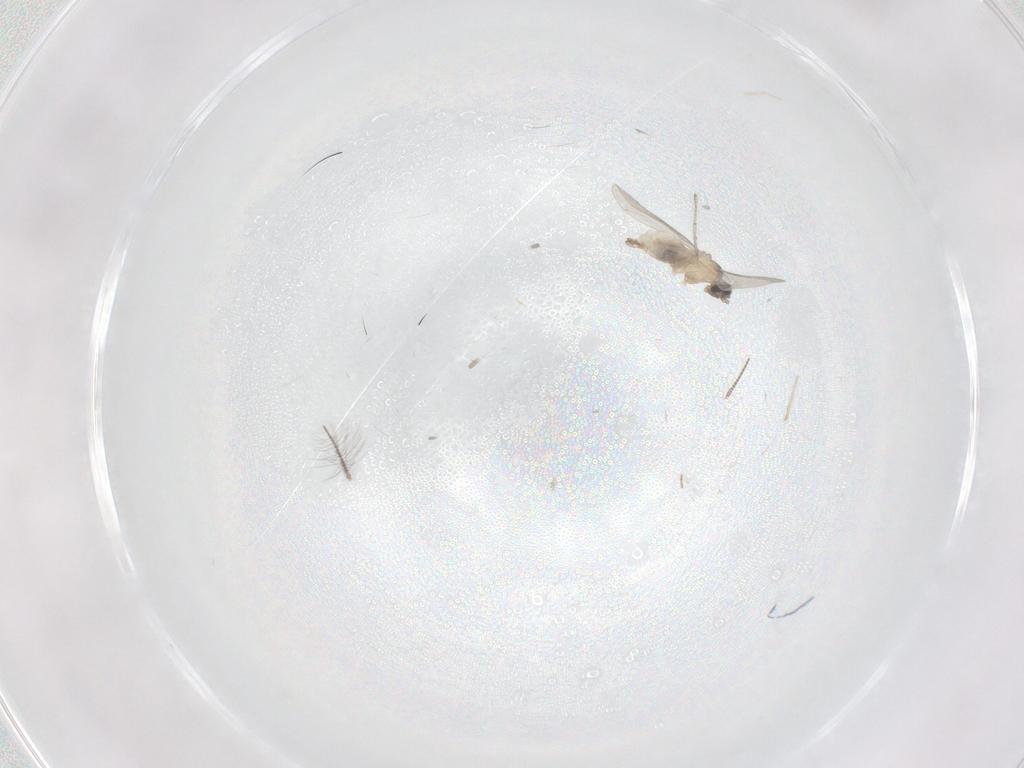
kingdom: Animalia
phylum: Arthropoda
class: Insecta
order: Diptera
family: Cecidomyiidae
